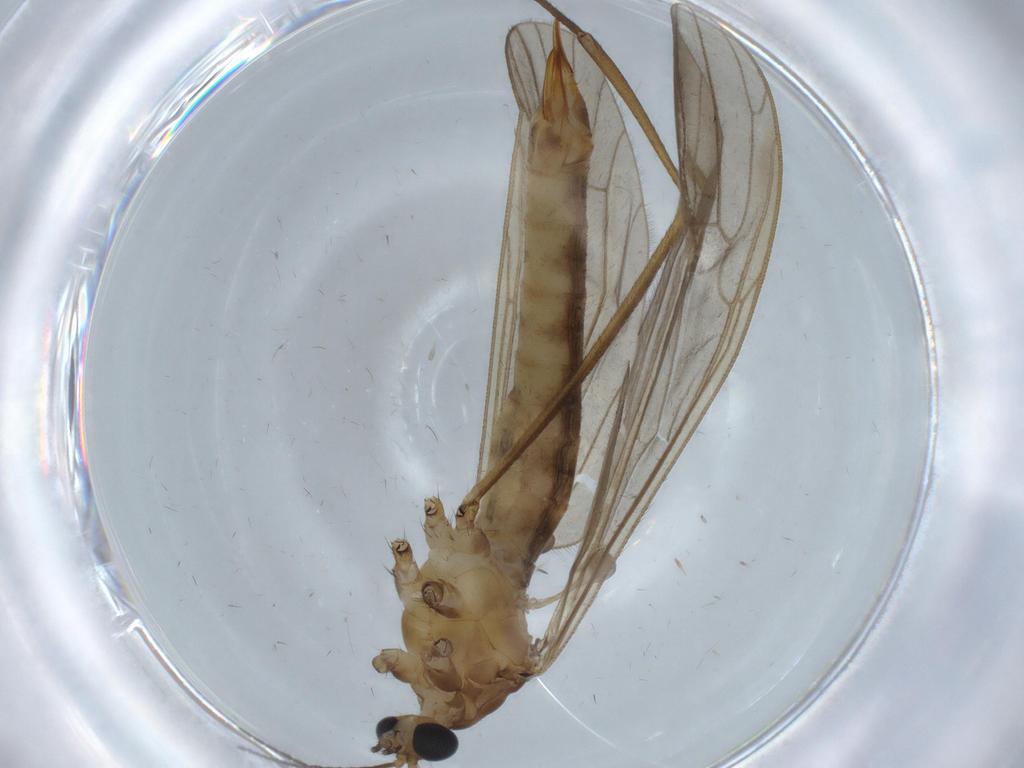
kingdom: Animalia
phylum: Arthropoda
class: Insecta
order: Diptera
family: Limoniidae
